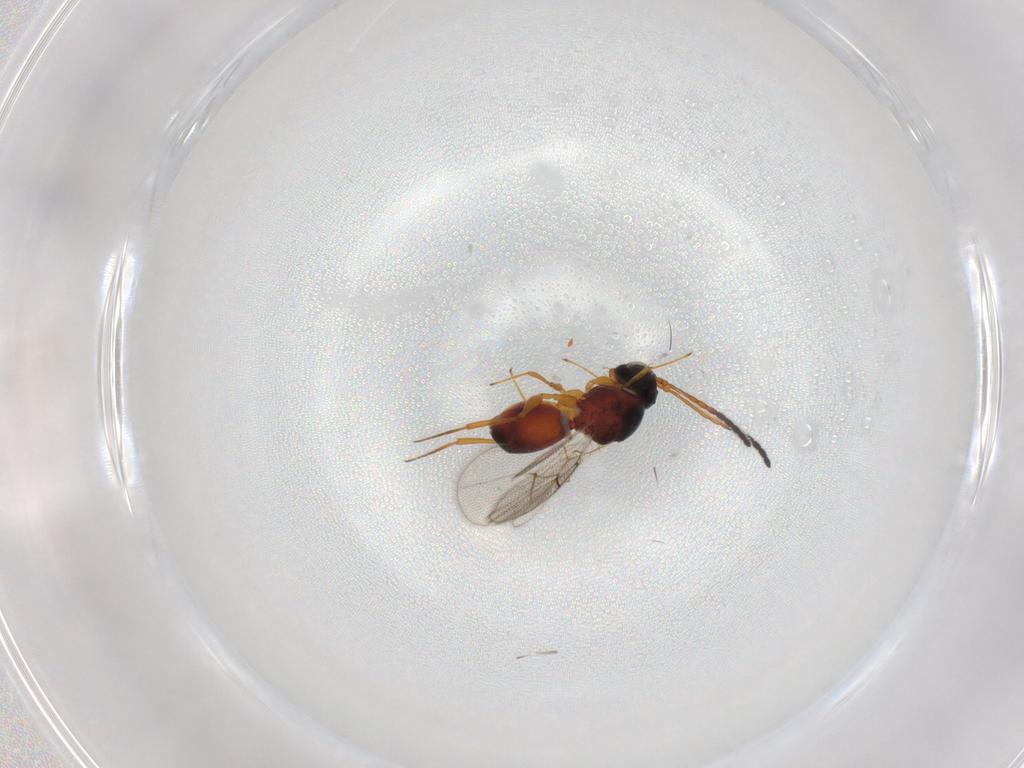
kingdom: Animalia
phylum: Arthropoda
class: Insecta
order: Hymenoptera
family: Figitidae
